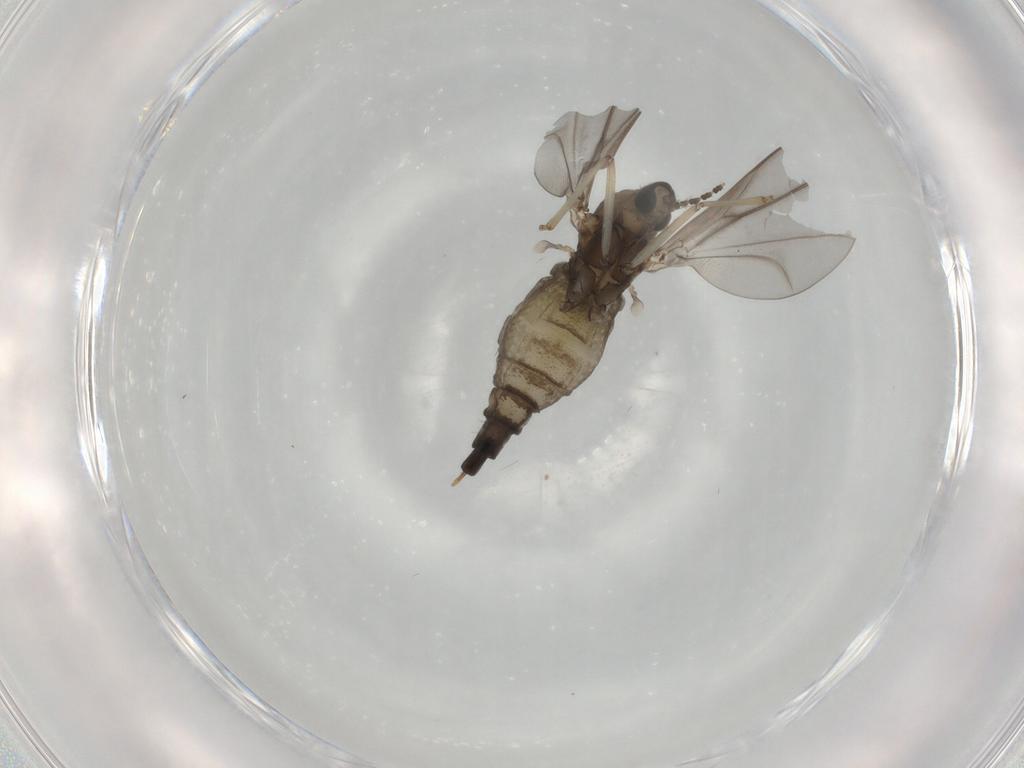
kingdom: Animalia
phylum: Arthropoda
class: Insecta
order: Diptera
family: Cecidomyiidae
